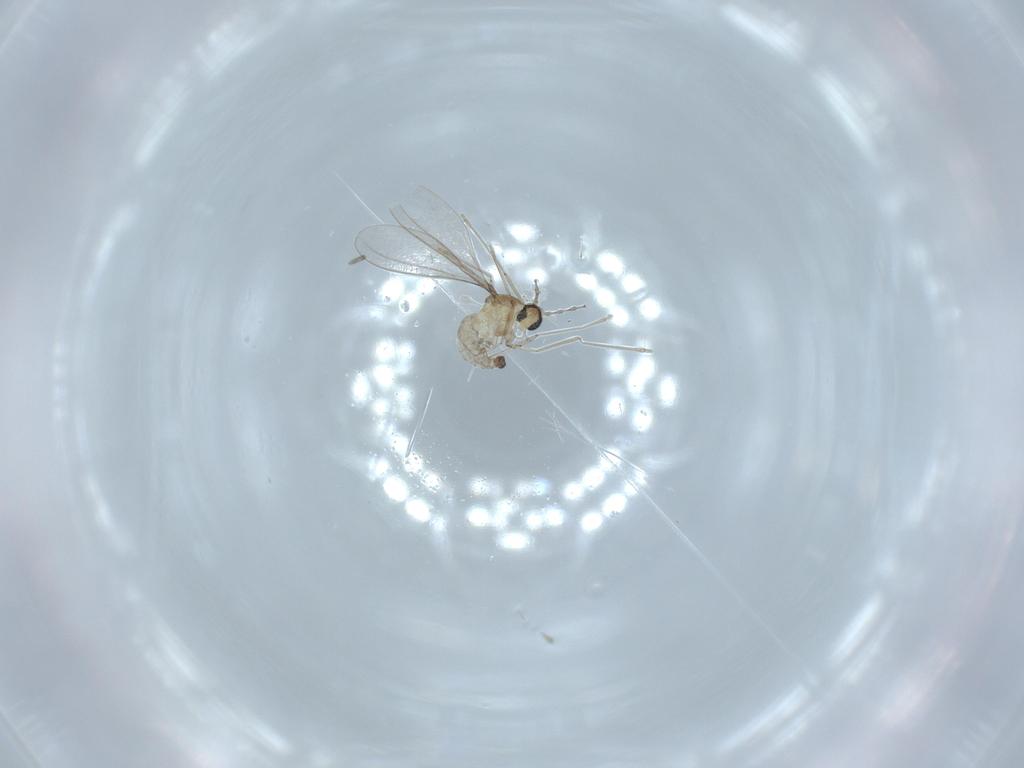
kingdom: Animalia
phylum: Arthropoda
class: Insecta
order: Diptera
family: Cecidomyiidae
